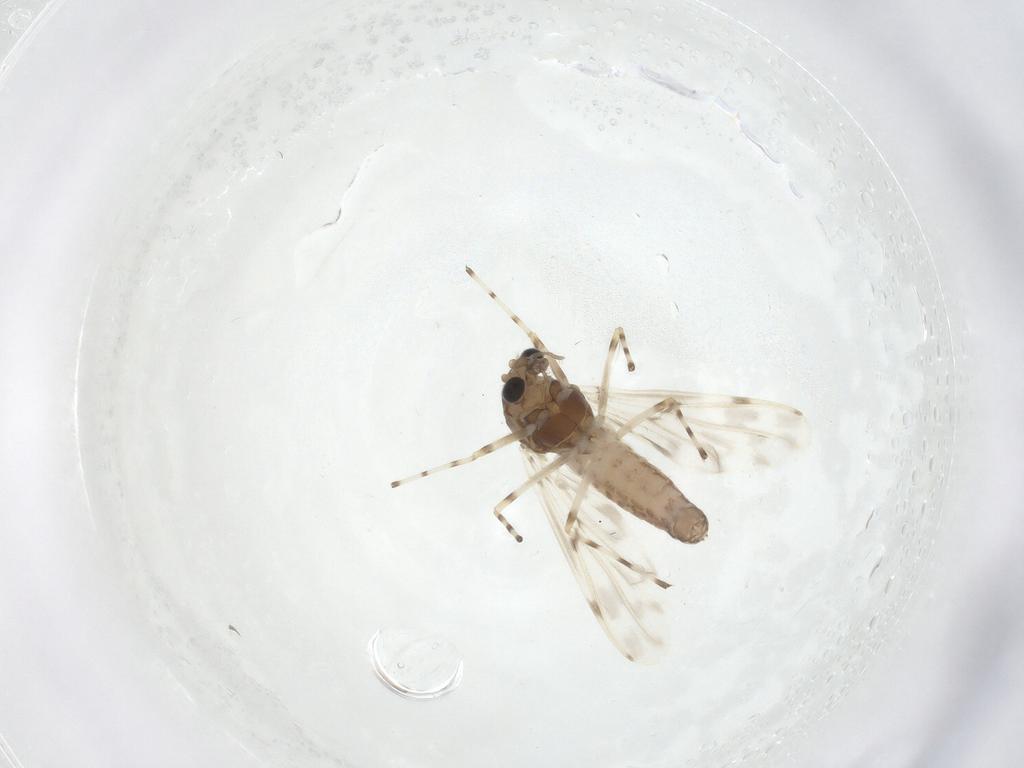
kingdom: Animalia
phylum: Arthropoda
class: Insecta
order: Diptera
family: Chironomidae
